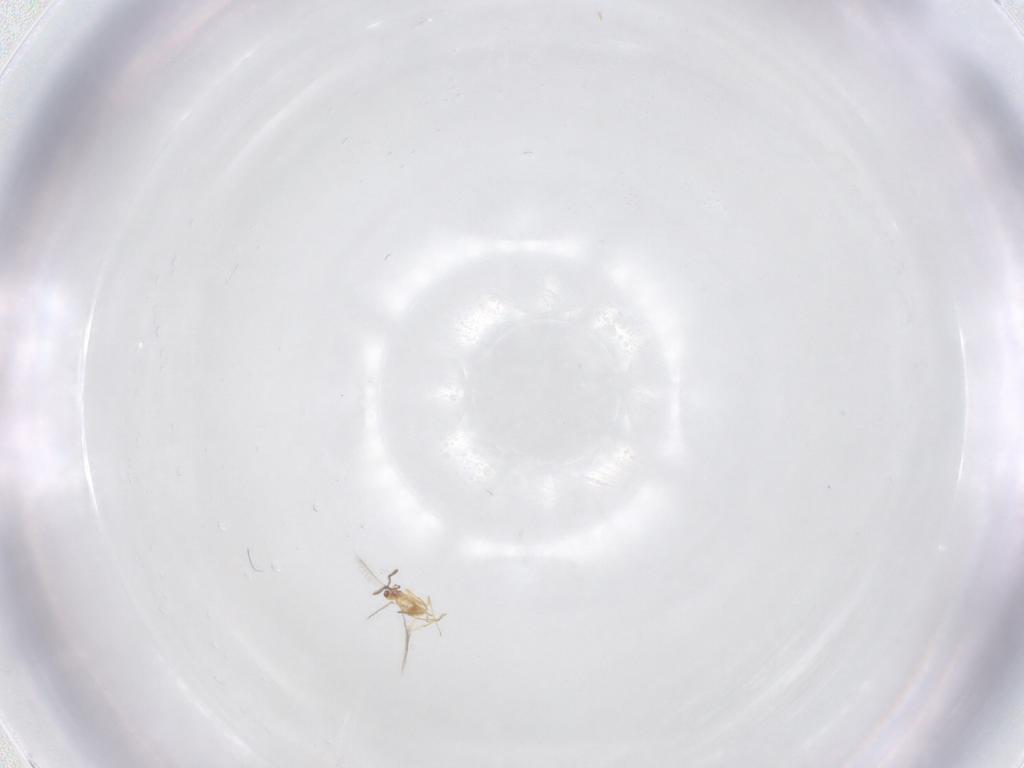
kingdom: Animalia
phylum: Arthropoda
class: Insecta
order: Hymenoptera
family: Mymaridae
